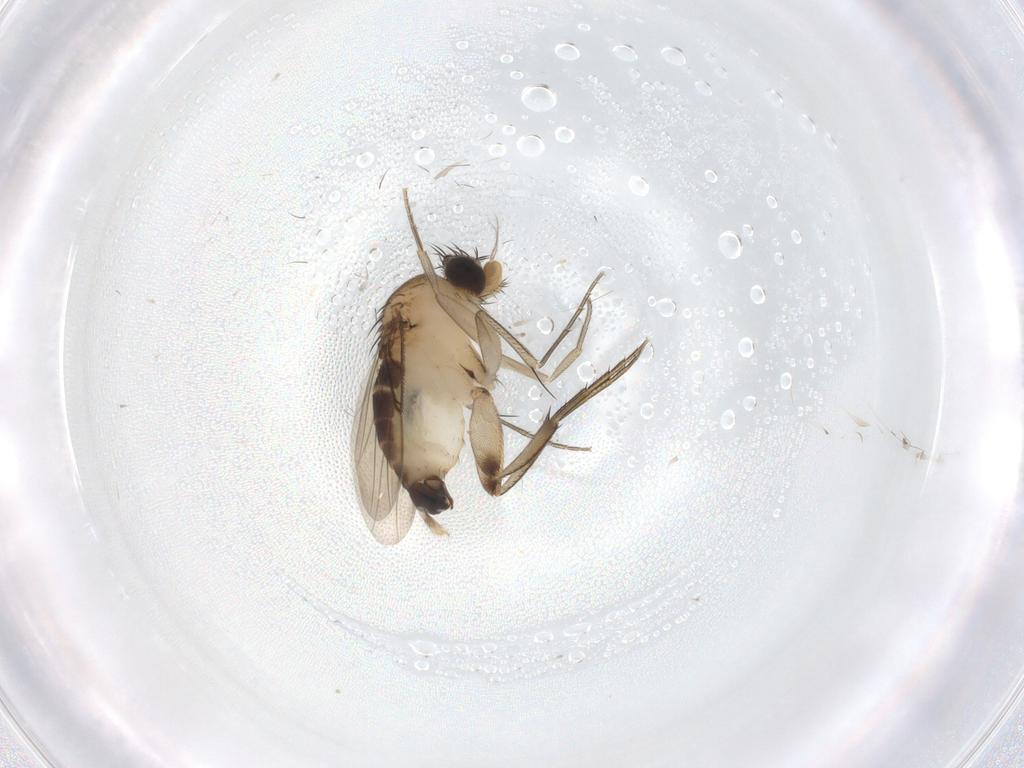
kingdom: Animalia
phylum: Arthropoda
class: Insecta
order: Diptera
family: Phoridae
